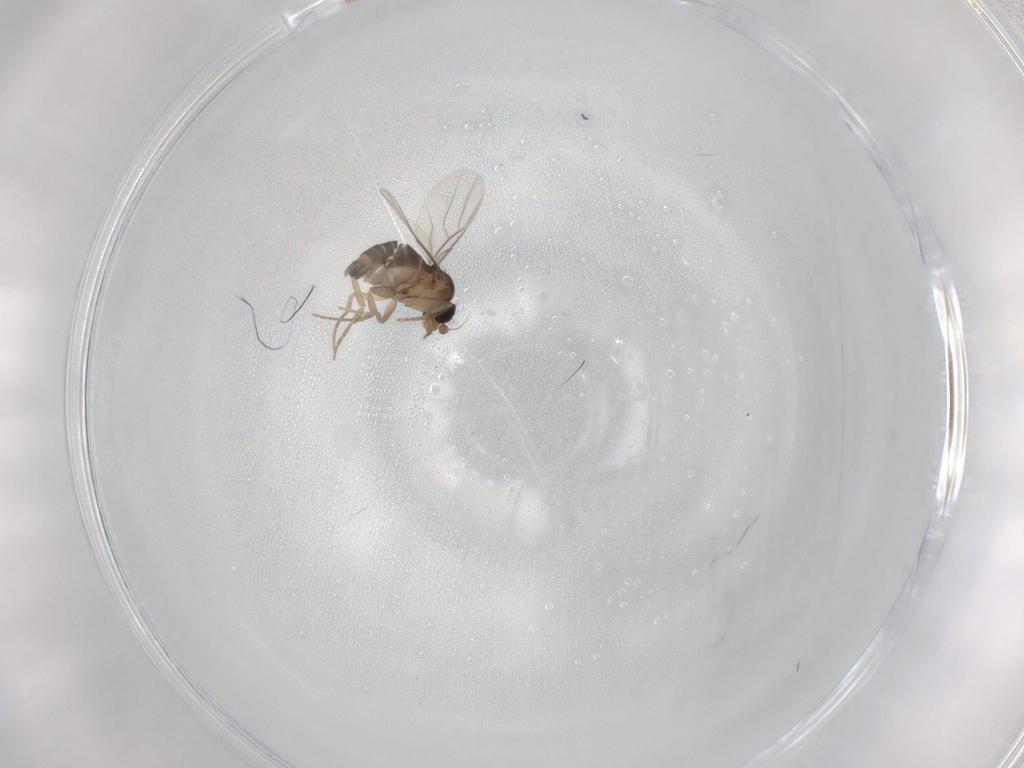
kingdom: Animalia
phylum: Arthropoda
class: Insecta
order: Diptera
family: Phoridae
